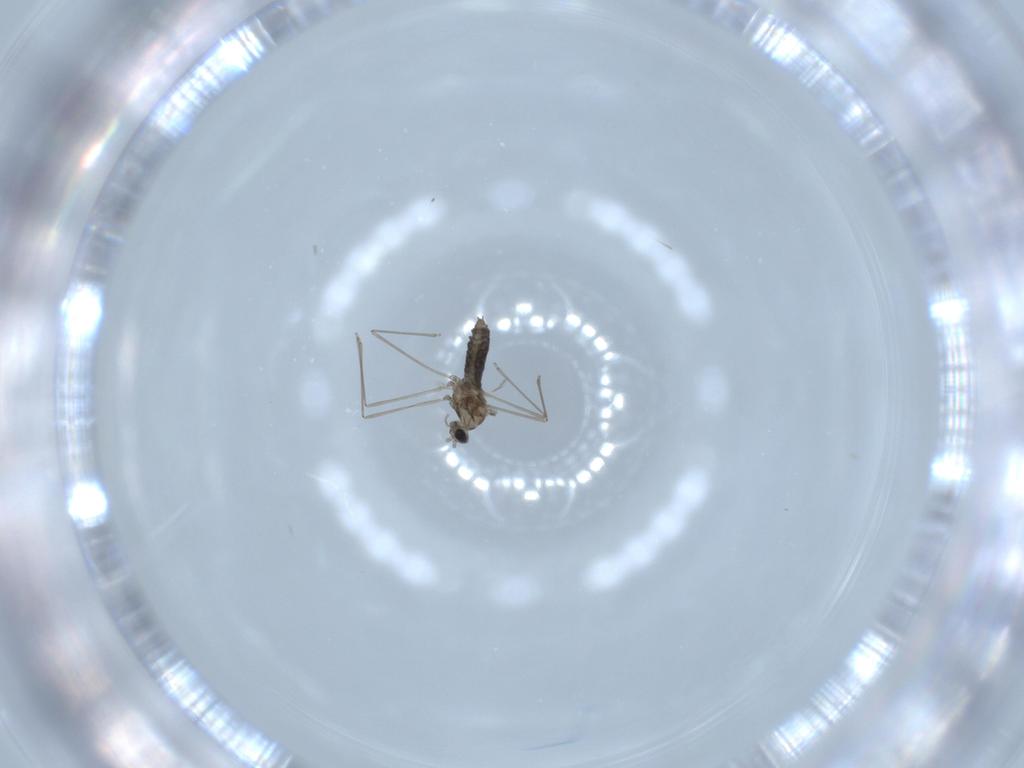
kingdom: Animalia
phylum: Arthropoda
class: Insecta
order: Diptera
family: Cecidomyiidae
